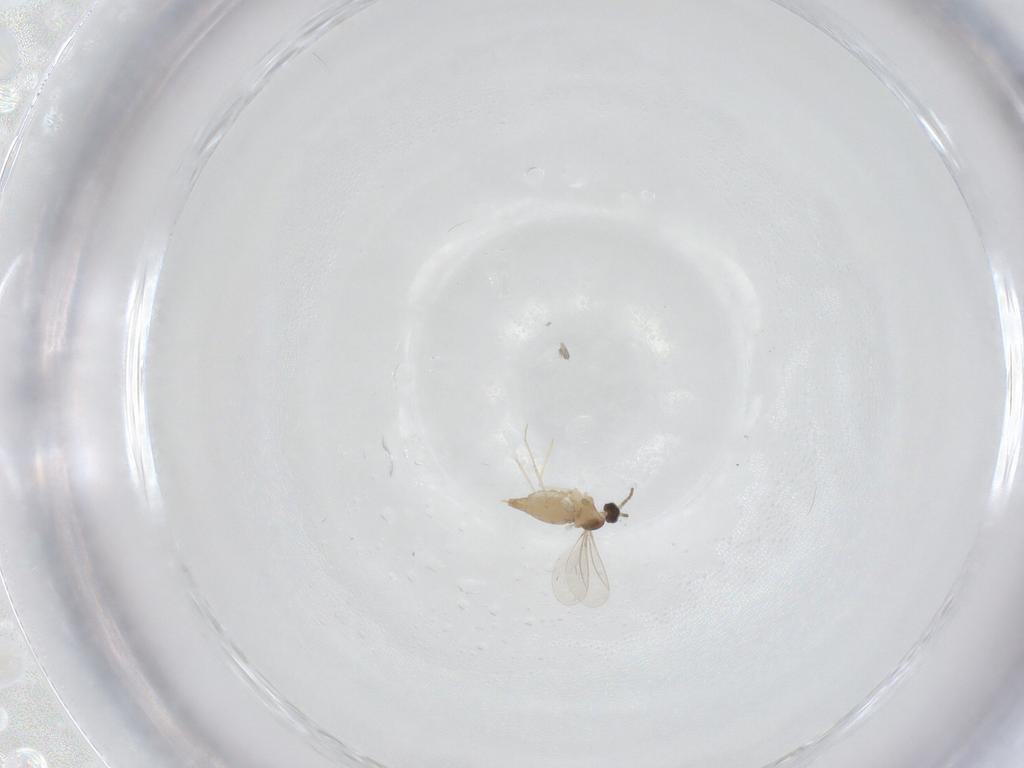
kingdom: Animalia
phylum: Arthropoda
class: Insecta
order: Diptera
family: Cecidomyiidae
